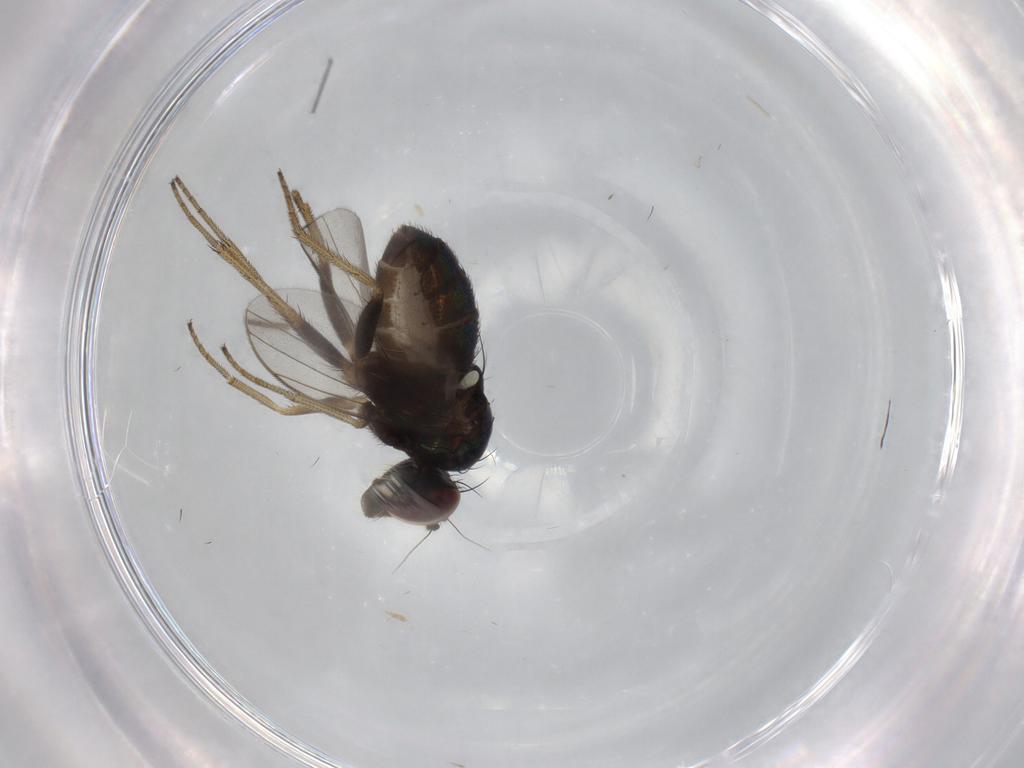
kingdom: Animalia
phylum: Arthropoda
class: Insecta
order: Diptera
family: Dolichopodidae
